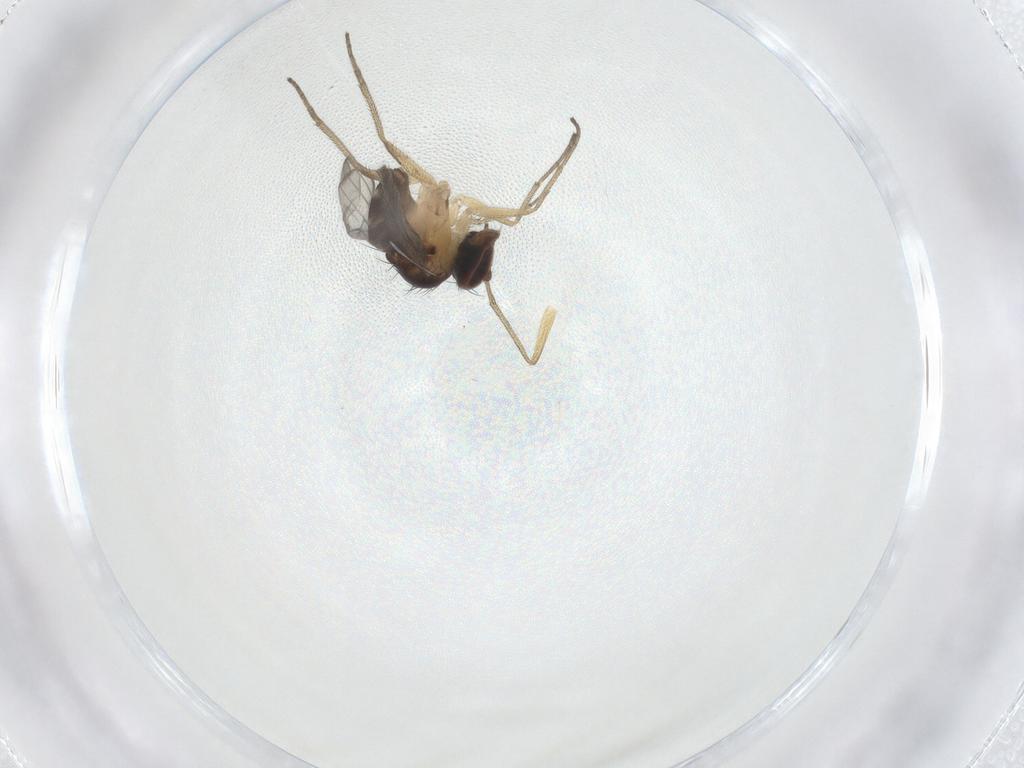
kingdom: Animalia
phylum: Arthropoda
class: Insecta
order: Diptera
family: Dolichopodidae
